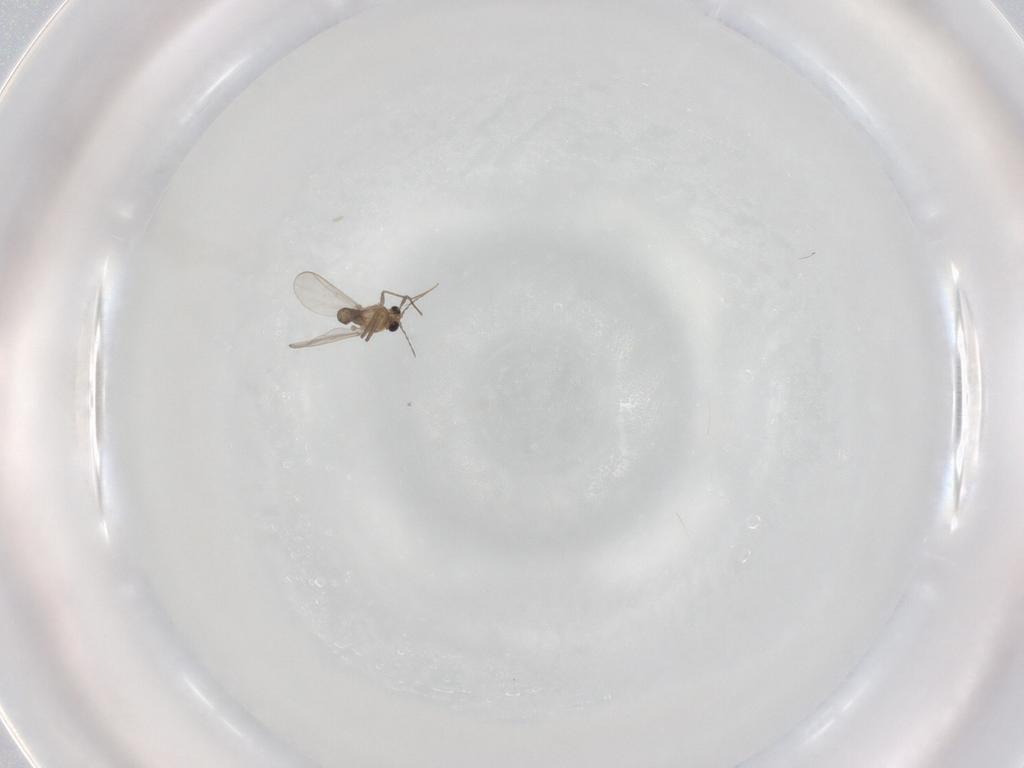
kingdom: Animalia
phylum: Arthropoda
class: Insecta
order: Diptera
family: Chironomidae
